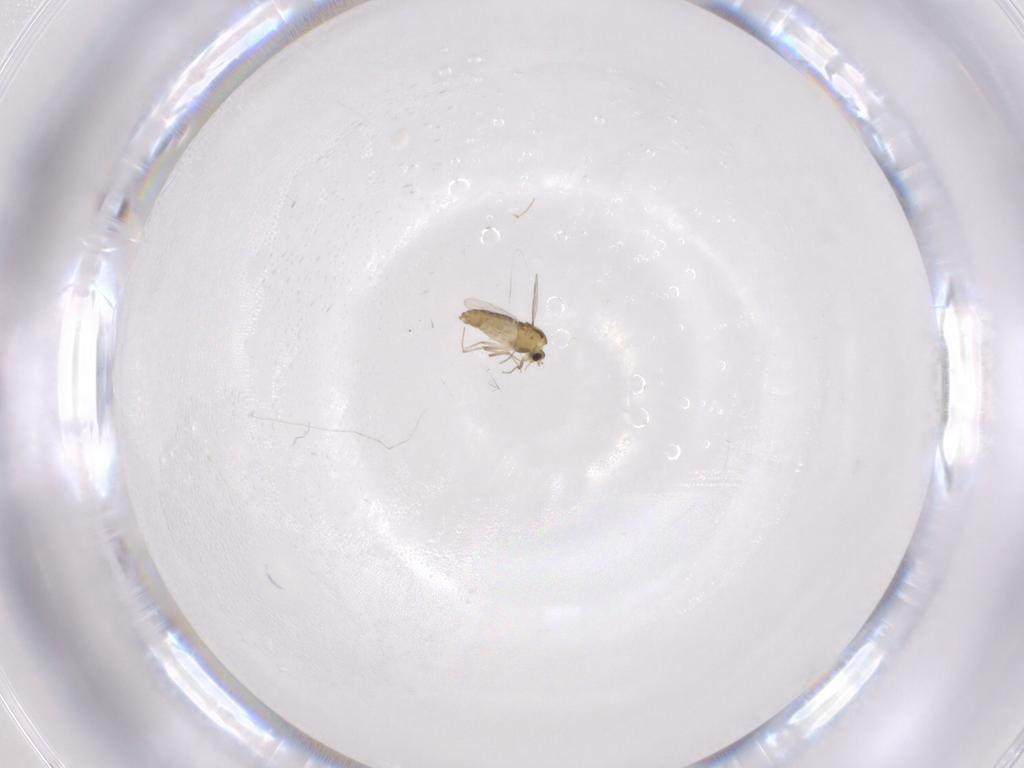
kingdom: Animalia
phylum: Arthropoda
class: Insecta
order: Diptera
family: Chironomidae
